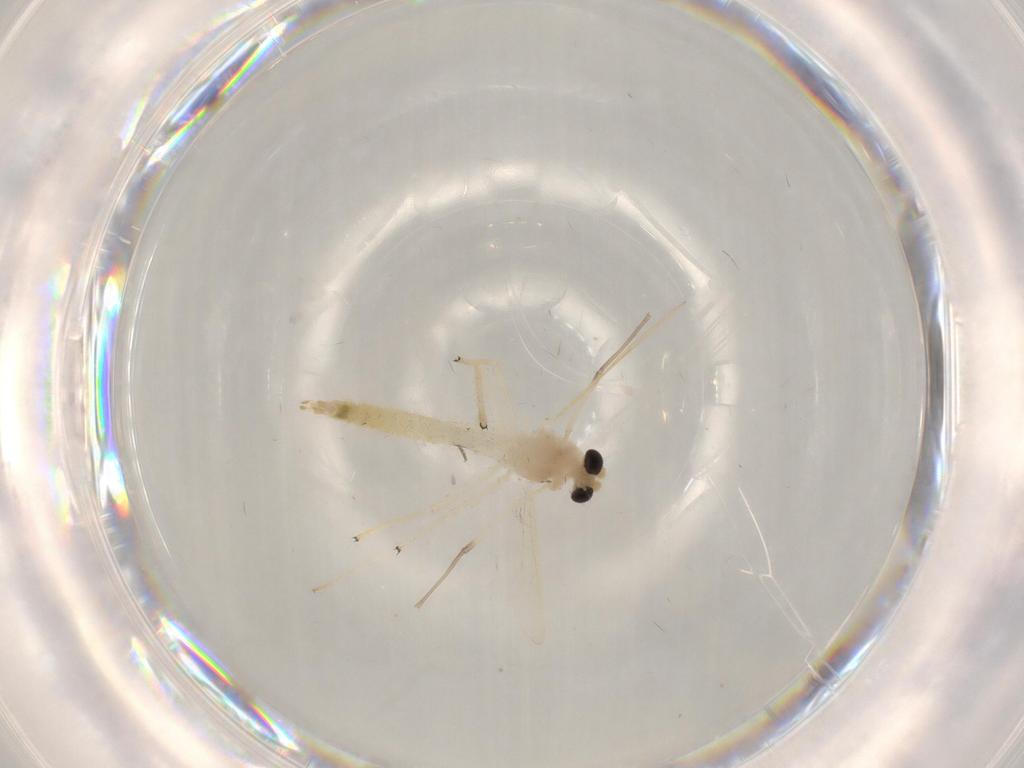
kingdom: Animalia
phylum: Arthropoda
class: Insecta
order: Diptera
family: Chironomidae
